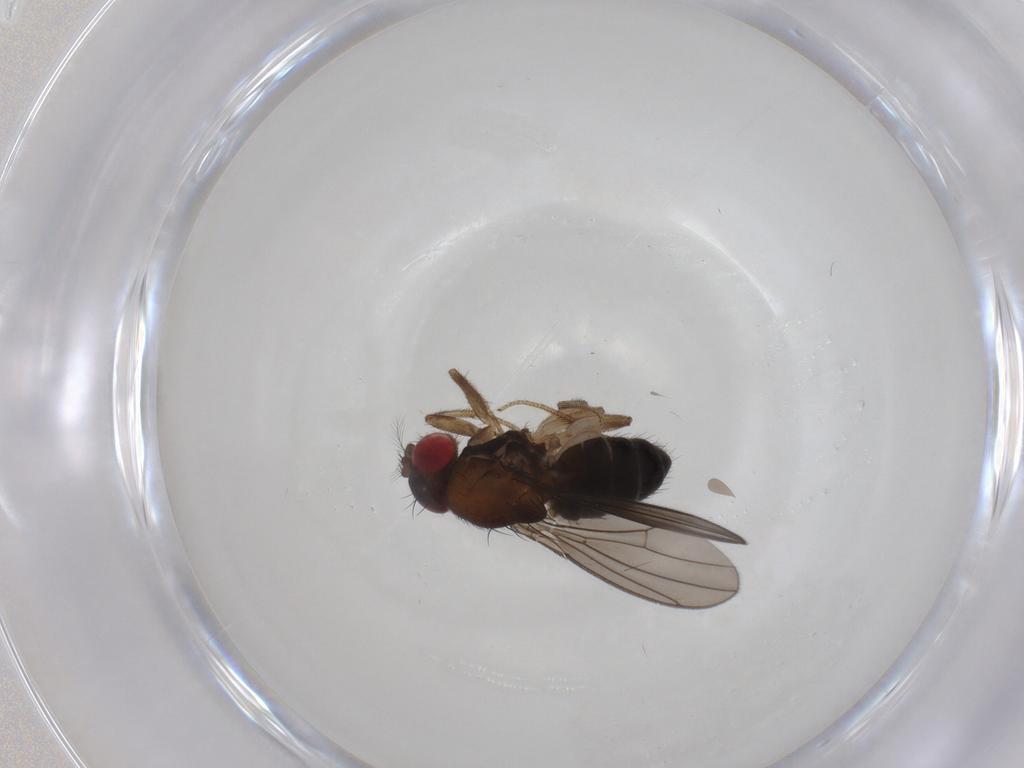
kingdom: Animalia
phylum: Arthropoda
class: Insecta
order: Diptera
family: Drosophilidae
